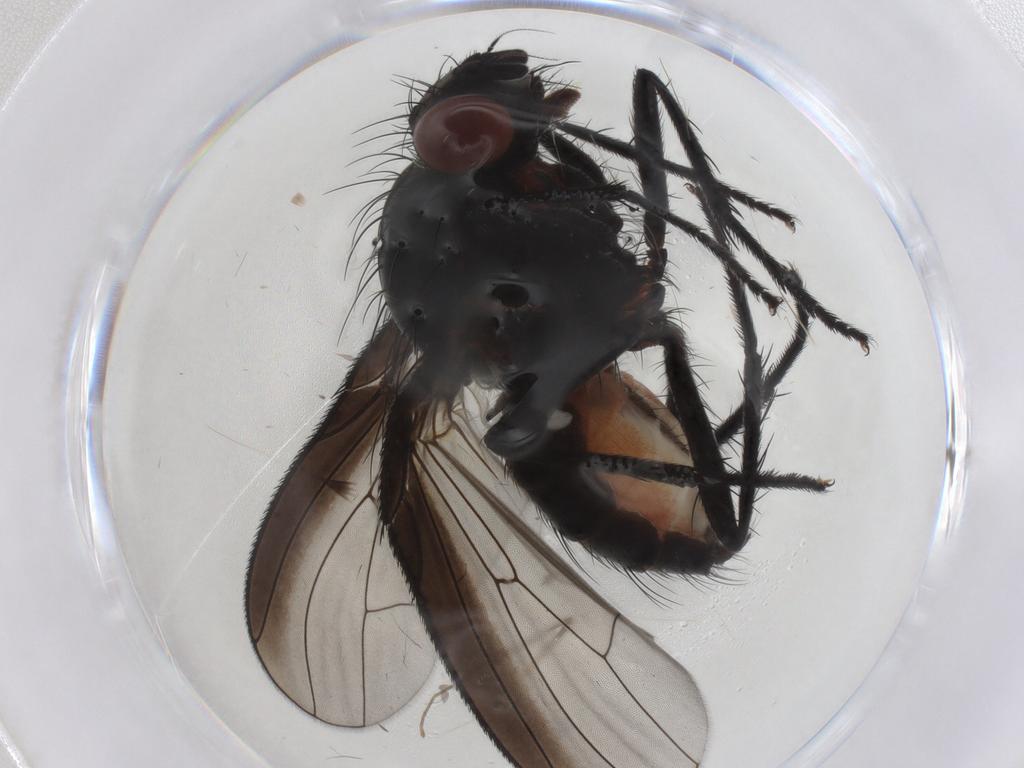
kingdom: Animalia
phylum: Arthropoda
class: Insecta
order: Diptera
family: Anthomyiidae
